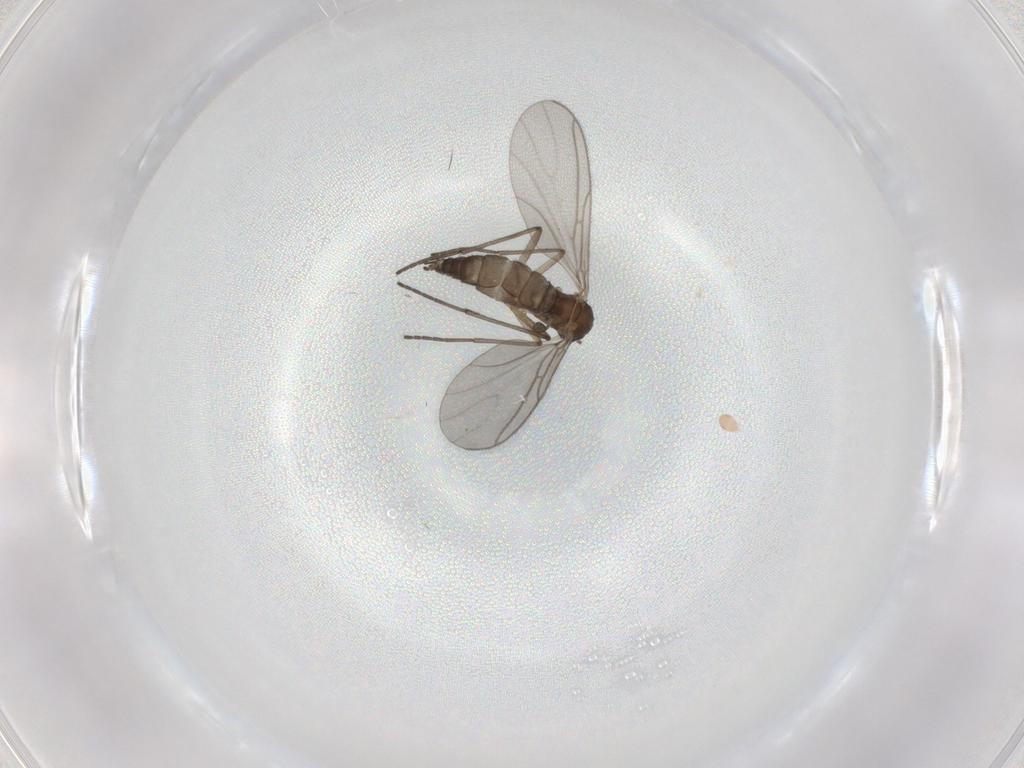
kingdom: Animalia
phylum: Arthropoda
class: Insecta
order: Diptera
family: Sciaridae
